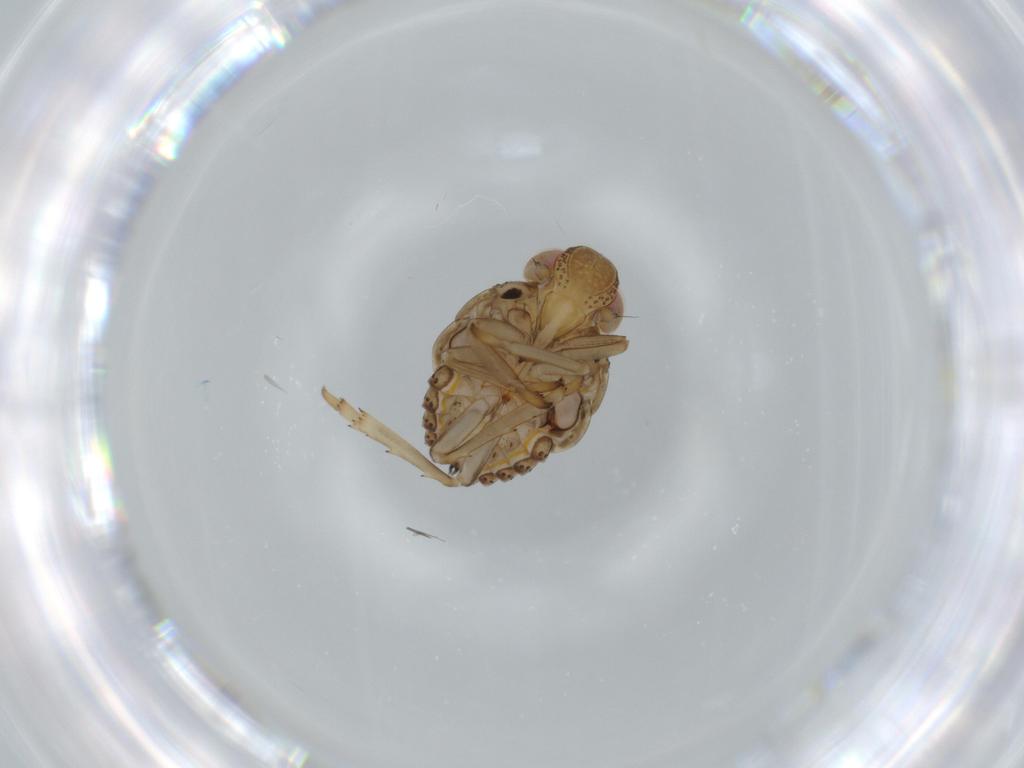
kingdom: Animalia
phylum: Arthropoda
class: Insecta
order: Hemiptera
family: Issidae
